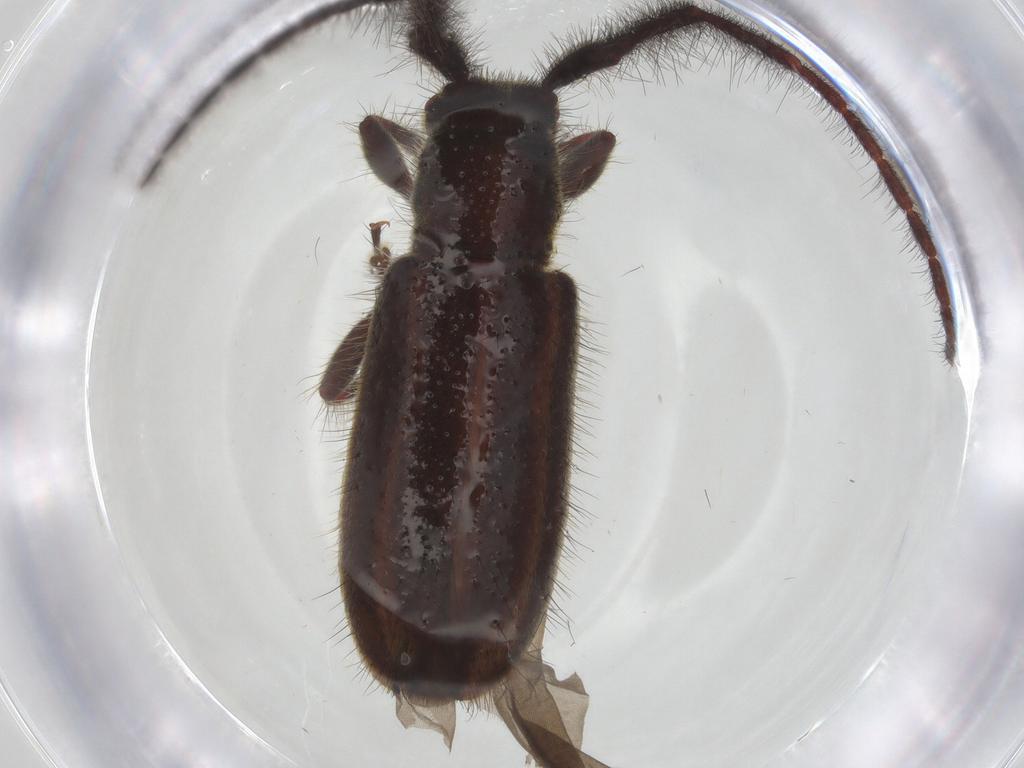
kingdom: Animalia
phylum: Arthropoda
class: Insecta
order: Coleoptera
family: Cerambycidae
